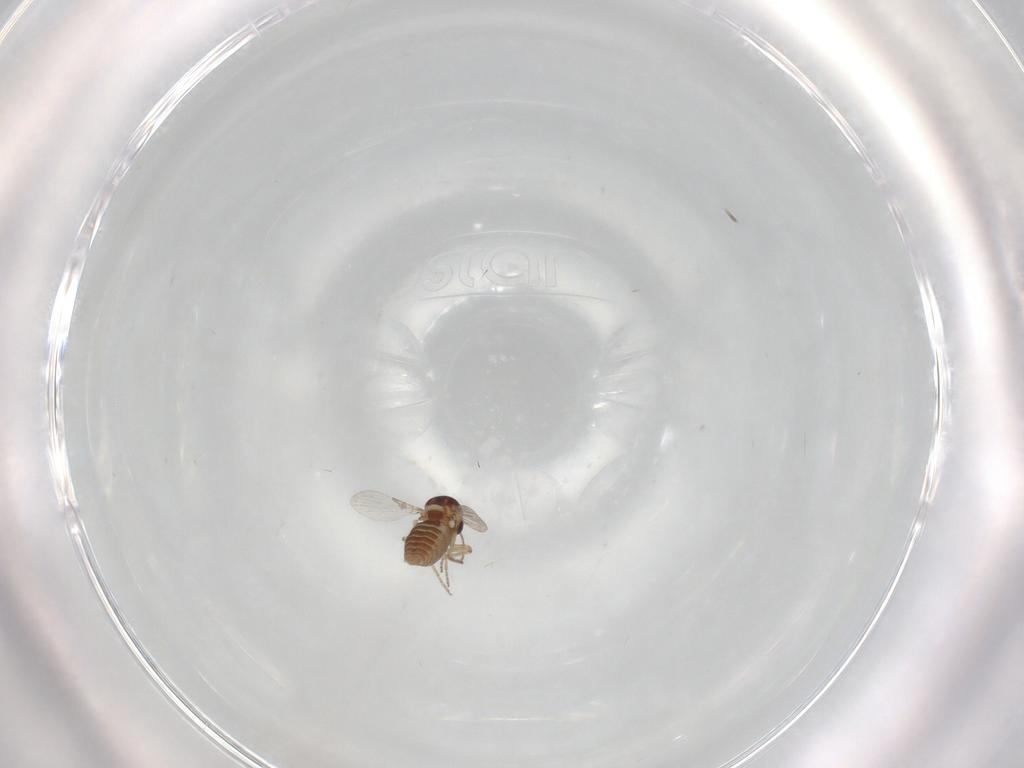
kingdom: Animalia
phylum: Arthropoda
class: Insecta
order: Diptera
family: Ceratopogonidae
